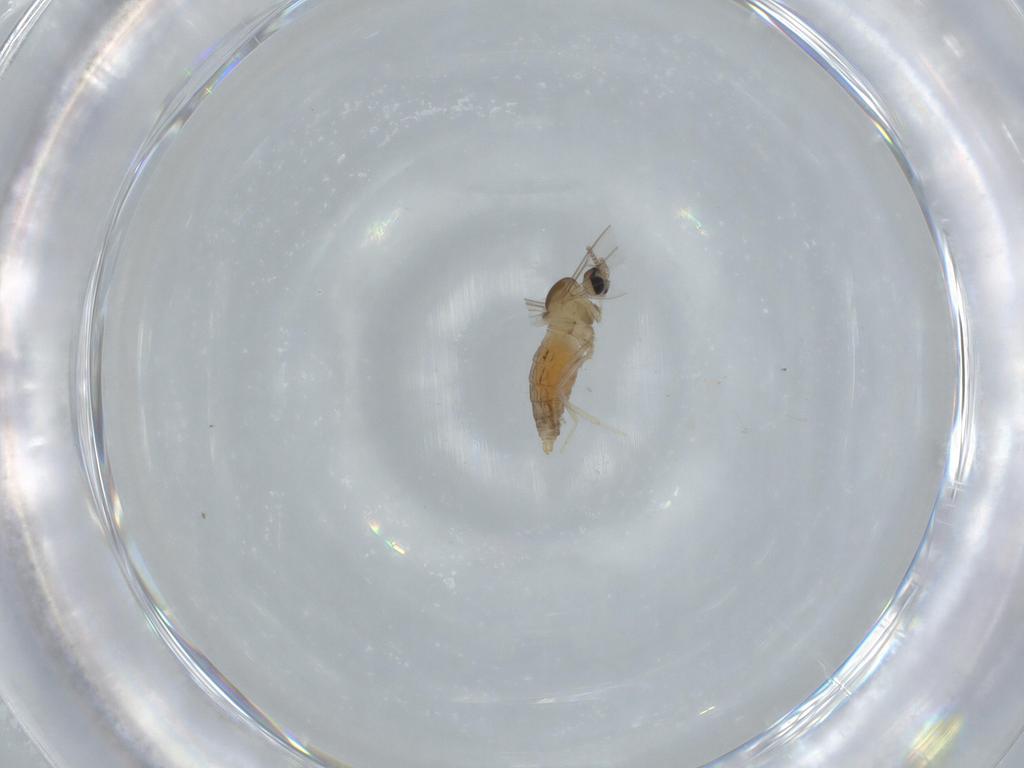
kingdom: Animalia
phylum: Arthropoda
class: Insecta
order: Diptera
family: Cecidomyiidae
